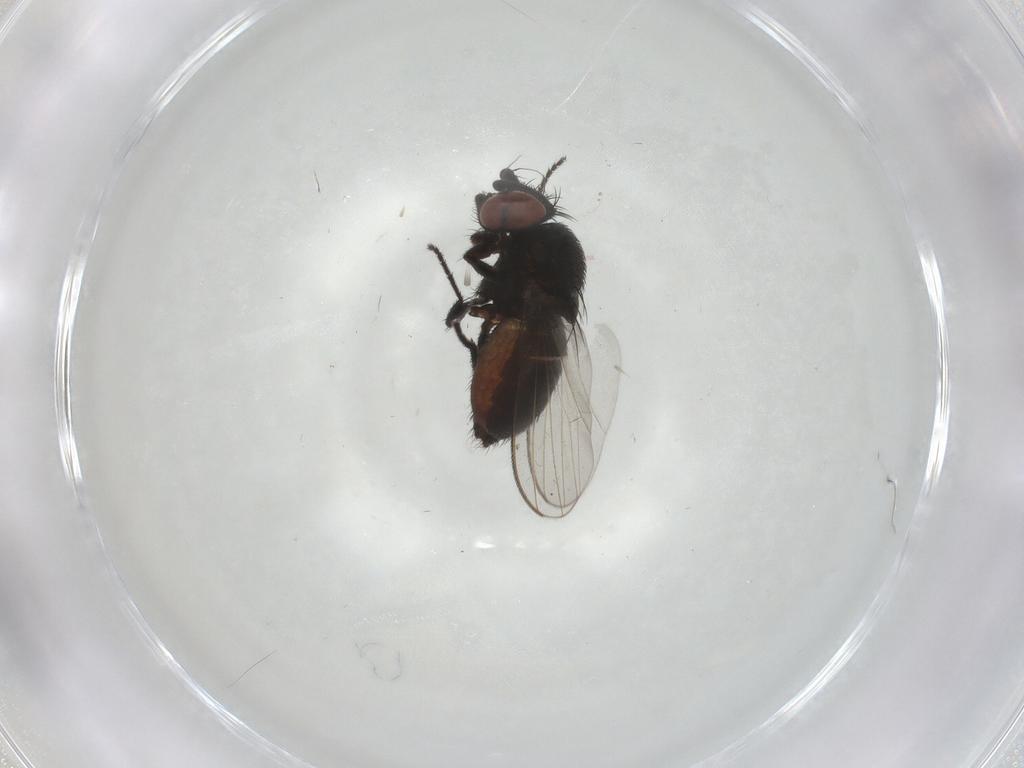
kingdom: Animalia
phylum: Arthropoda
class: Insecta
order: Diptera
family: Milichiidae
